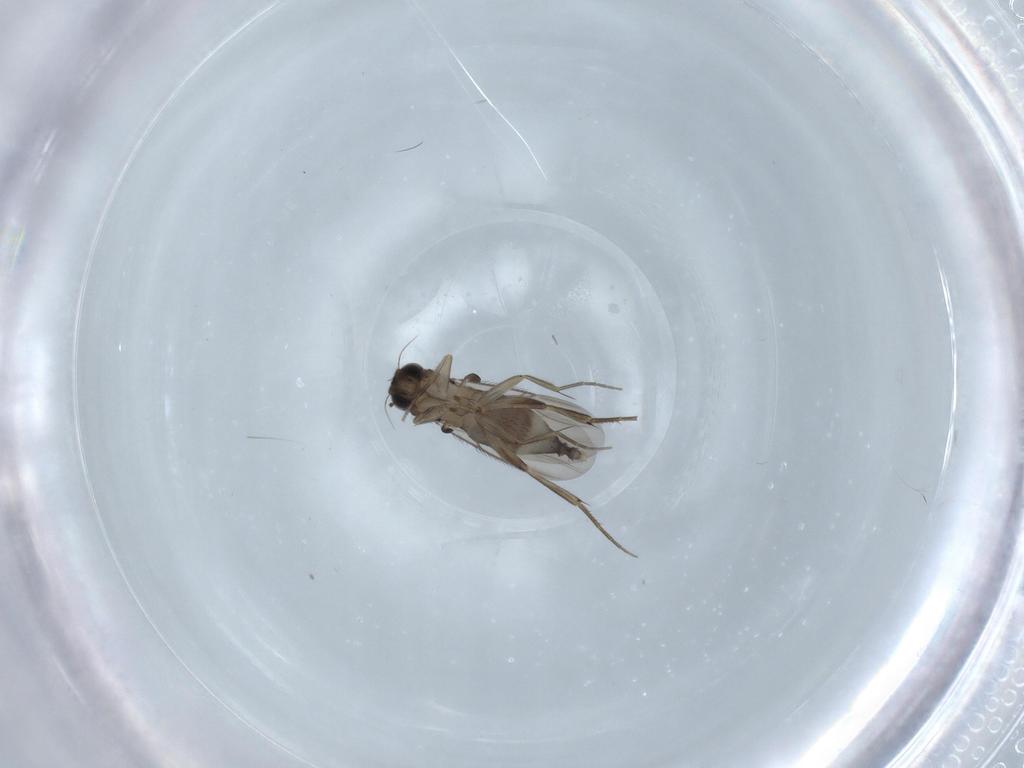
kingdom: Animalia
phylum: Arthropoda
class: Insecta
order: Diptera
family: Phoridae
